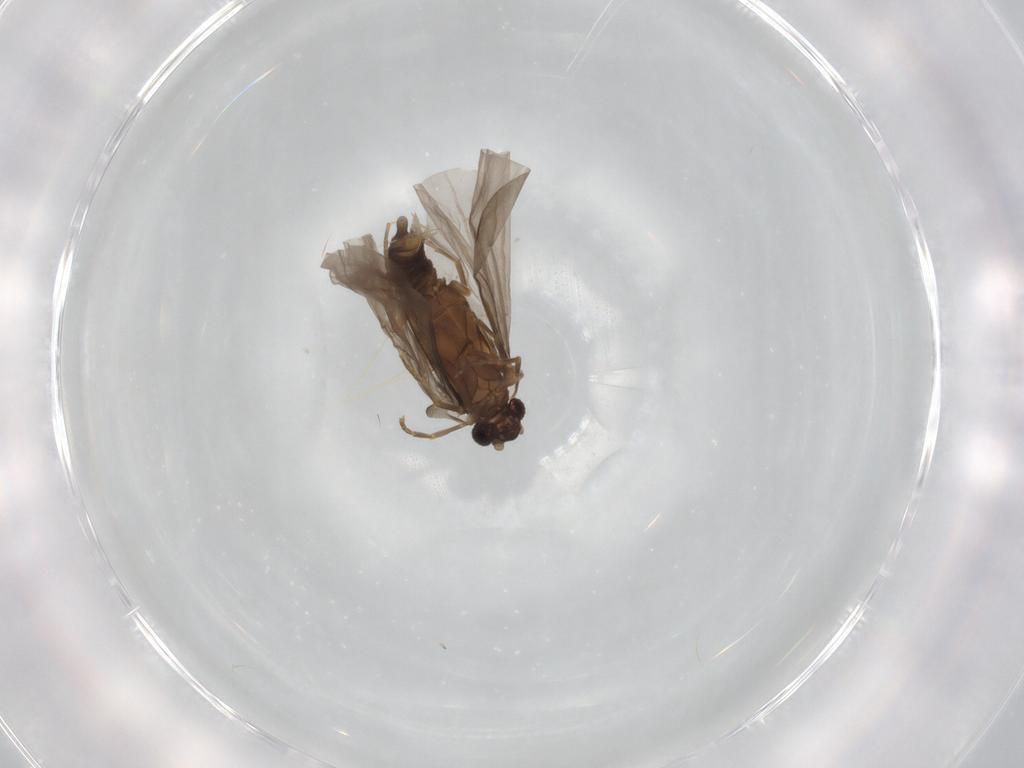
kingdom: Animalia
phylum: Arthropoda
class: Insecta
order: Strepsiptera
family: Mengenillidae
